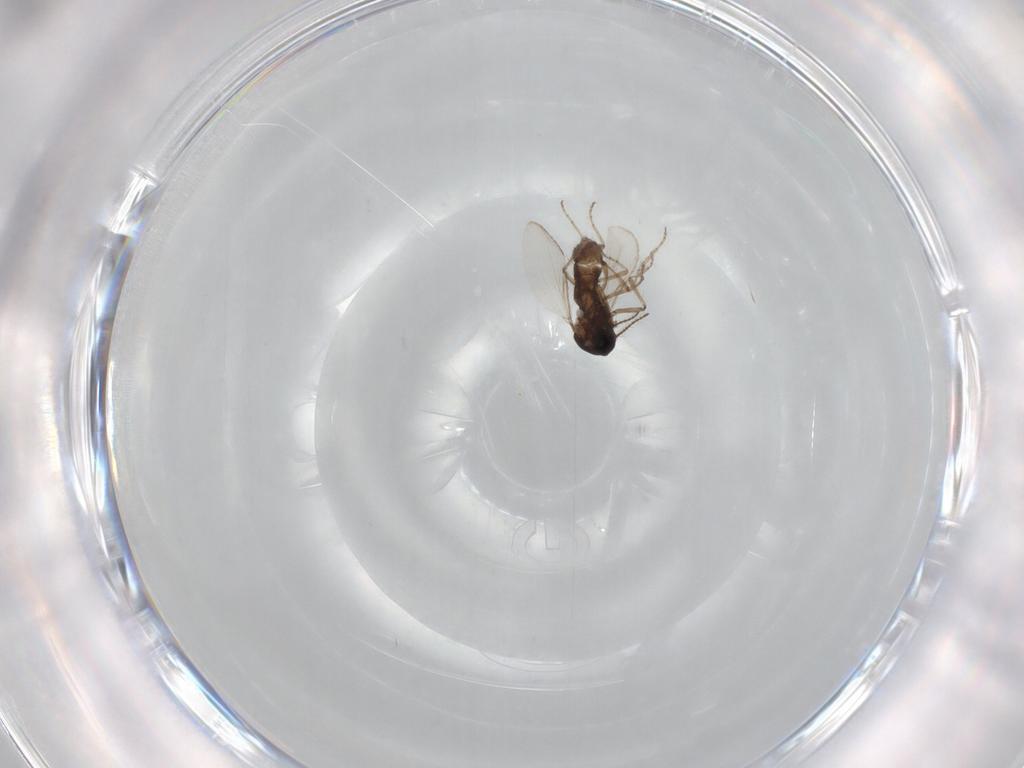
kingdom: Animalia
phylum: Arthropoda
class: Insecta
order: Diptera
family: Ceratopogonidae
